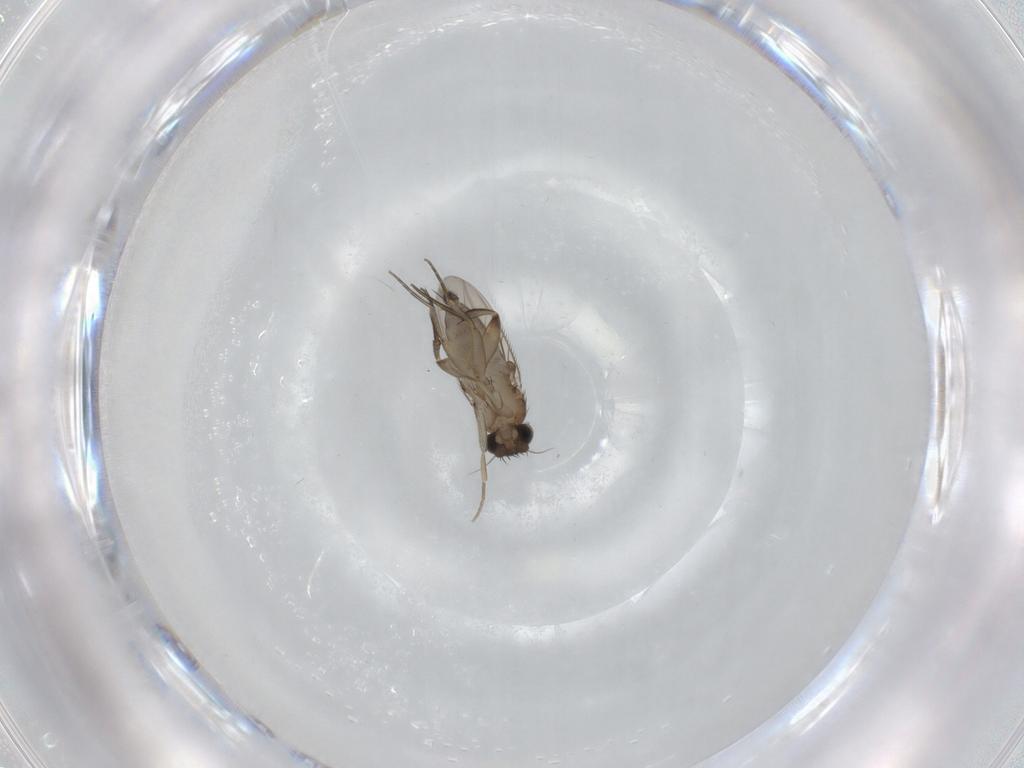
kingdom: Animalia
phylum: Arthropoda
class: Insecta
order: Diptera
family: Phoridae
